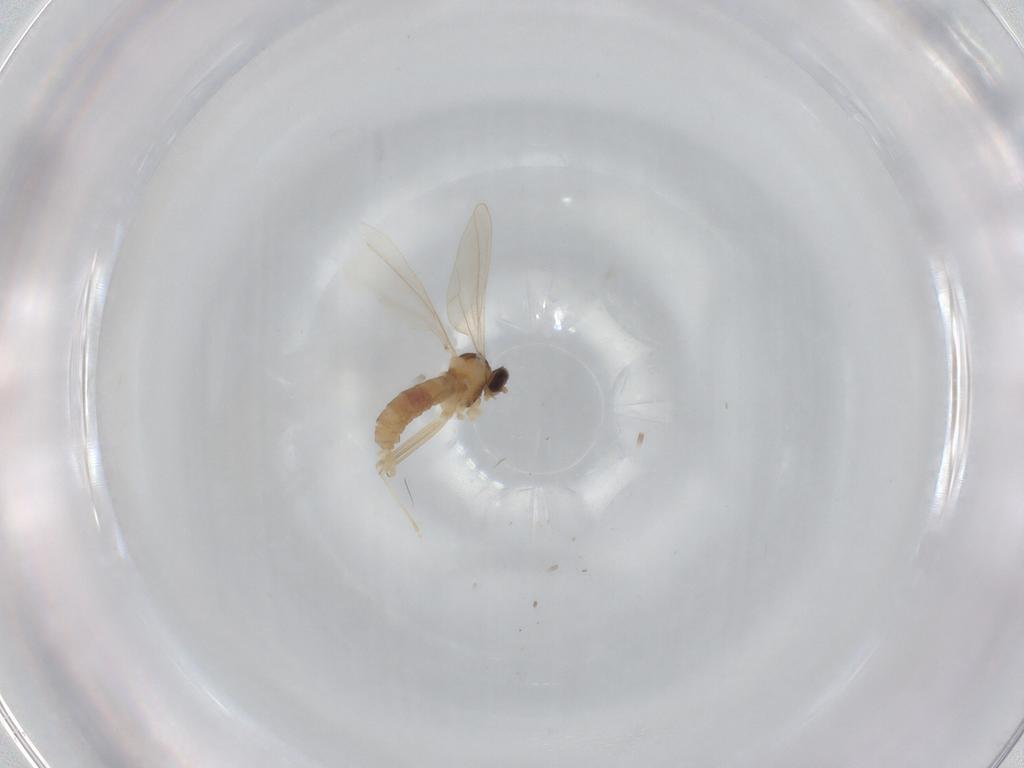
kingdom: Animalia
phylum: Arthropoda
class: Insecta
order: Diptera
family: Cecidomyiidae
